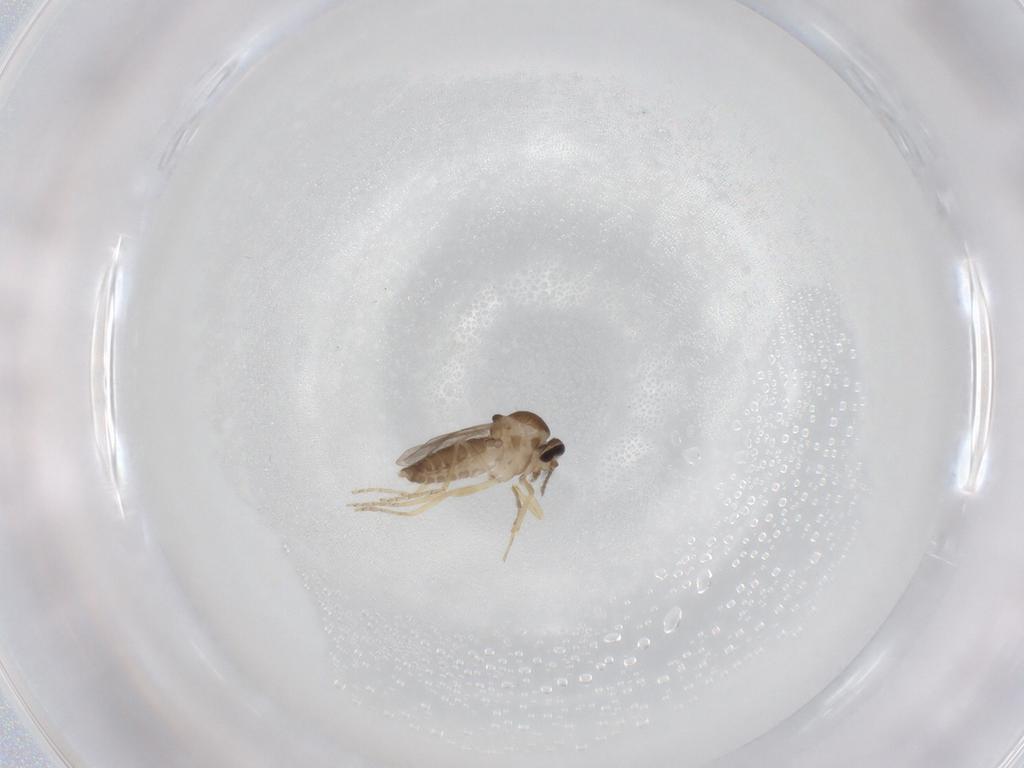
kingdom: Animalia
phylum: Arthropoda
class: Insecta
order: Diptera
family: Ceratopogonidae
